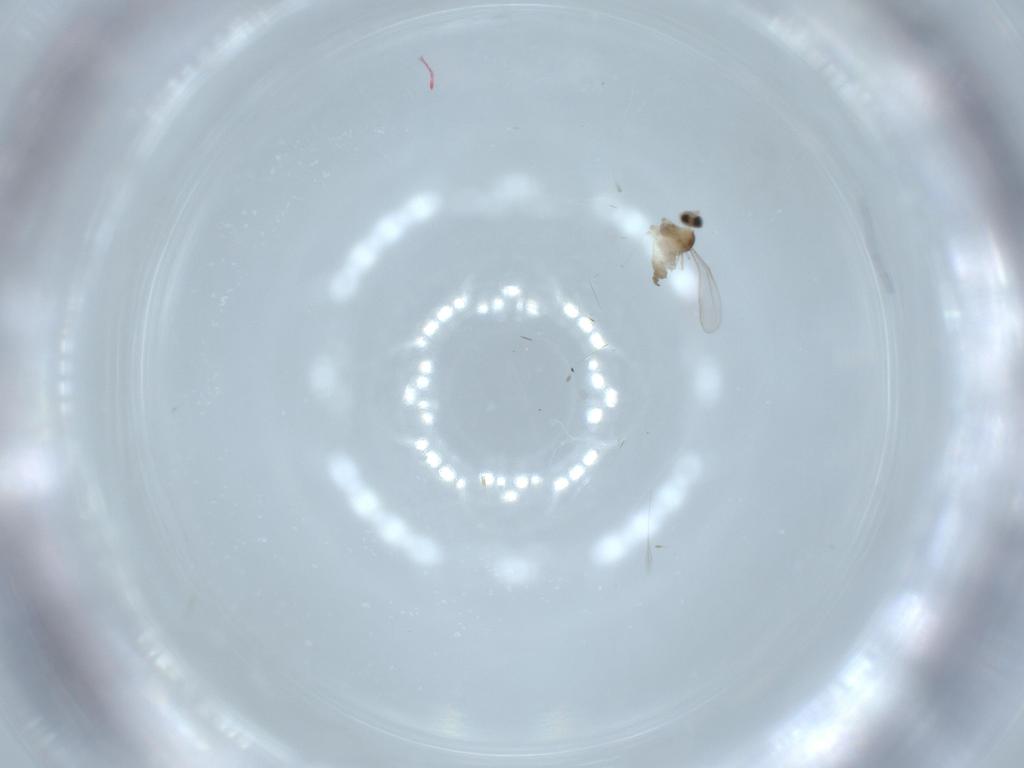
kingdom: Animalia
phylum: Arthropoda
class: Insecta
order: Diptera
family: Cecidomyiidae
